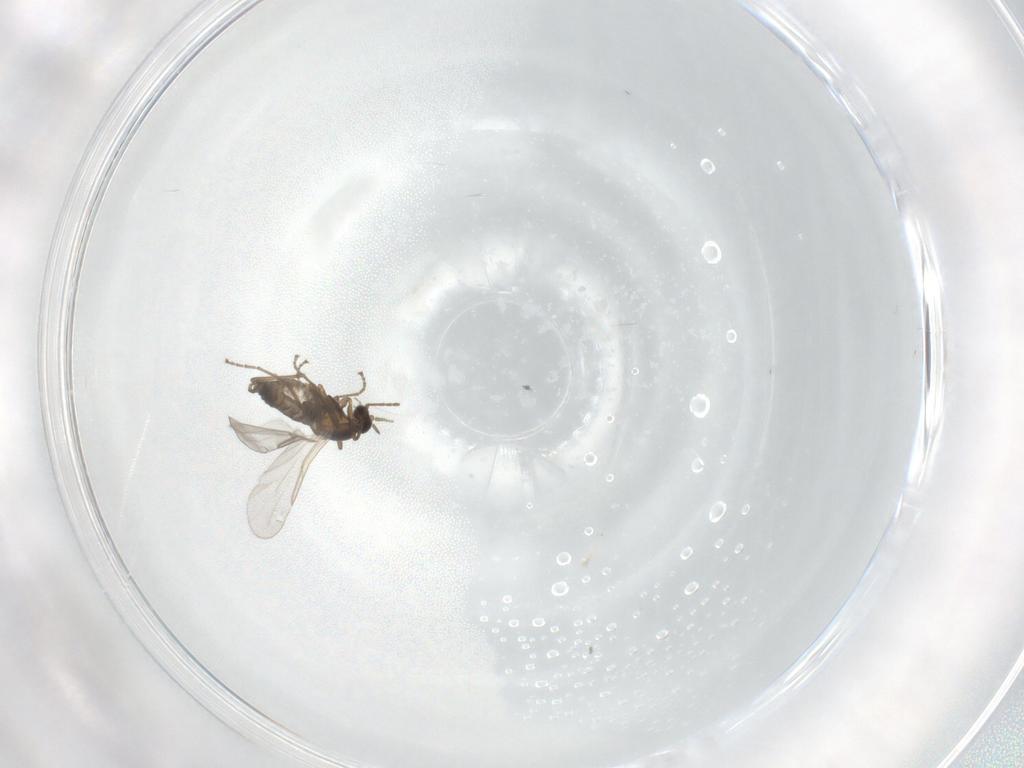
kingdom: Animalia
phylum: Arthropoda
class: Insecta
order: Diptera
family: Cecidomyiidae
